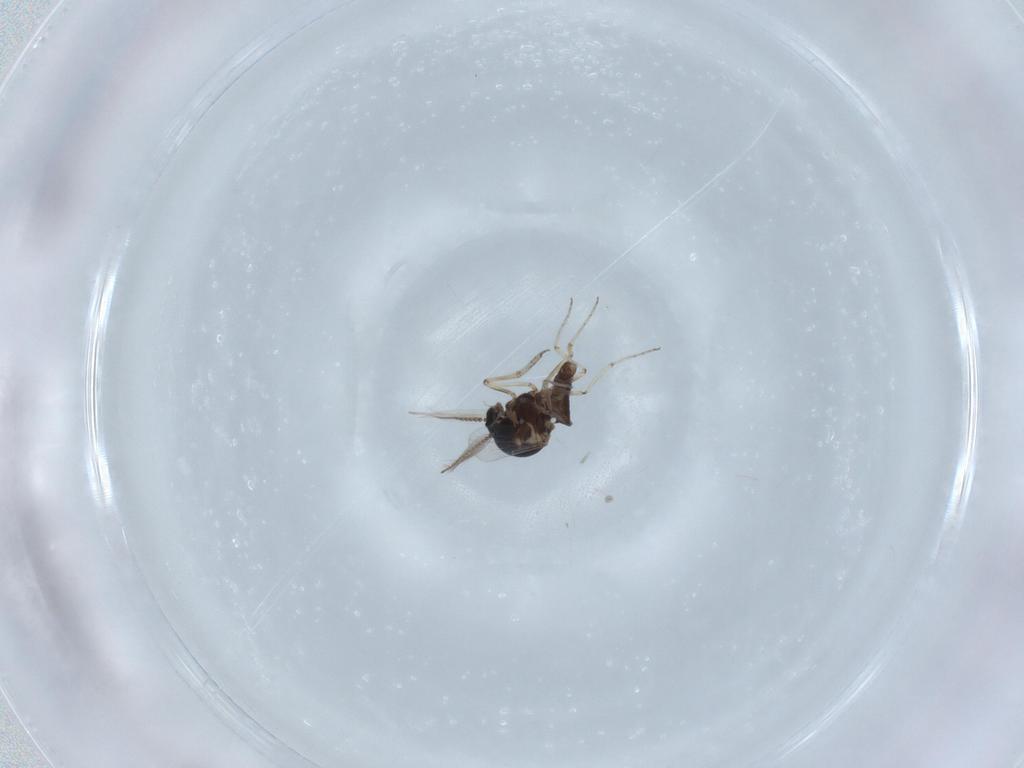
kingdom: Animalia
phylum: Arthropoda
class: Insecta
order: Diptera
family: Ceratopogonidae
